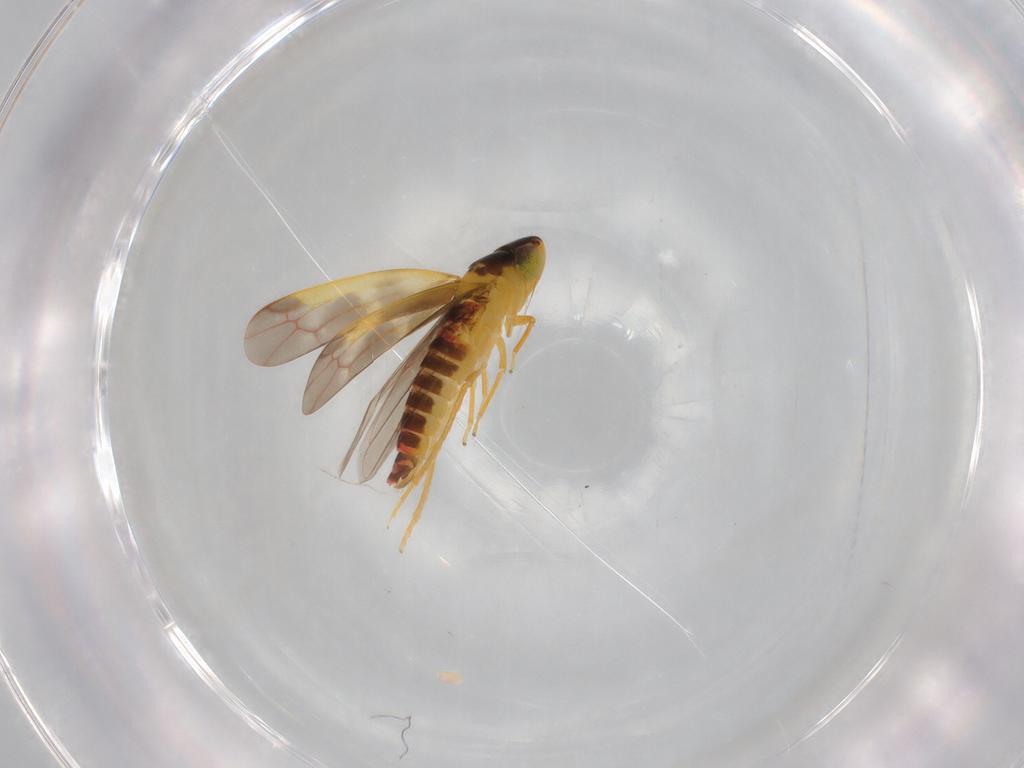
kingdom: Animalia
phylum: Arthropoda
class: Insecta
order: Hemiptera
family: Cicadellidae
